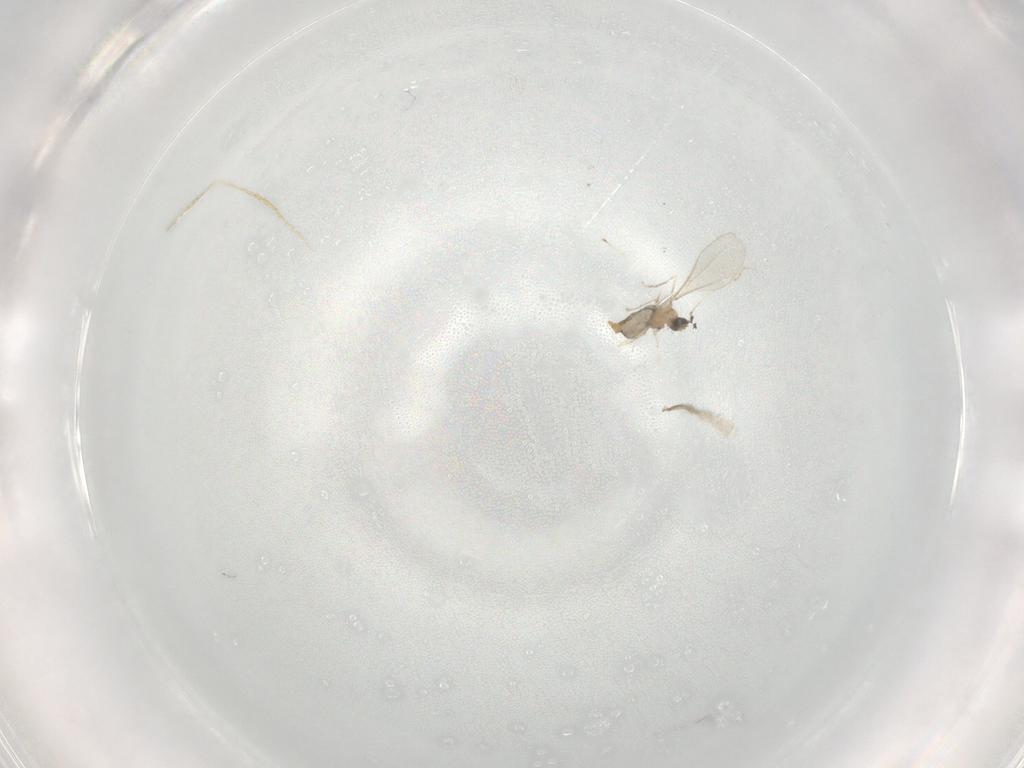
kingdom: Animalia
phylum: Arthropoda
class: Insecta
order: Diptera
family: Cecidomyiidae
